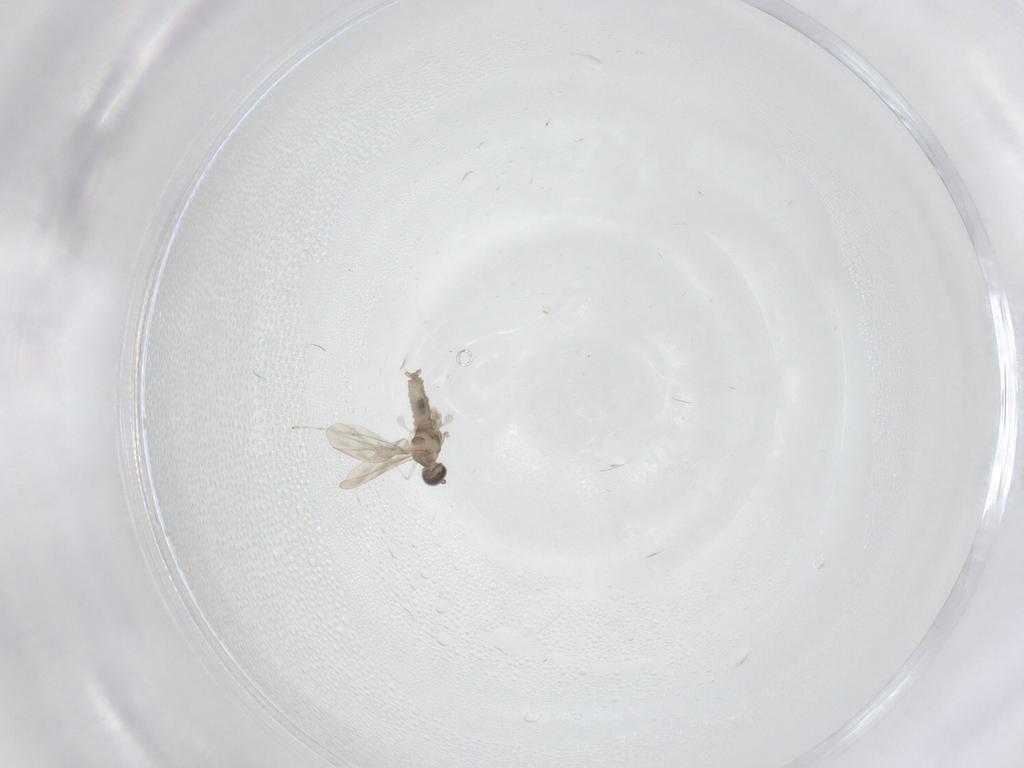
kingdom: Animalia
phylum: Arthropoda
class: Insecta
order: Diptera
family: Cecidomyiidae
